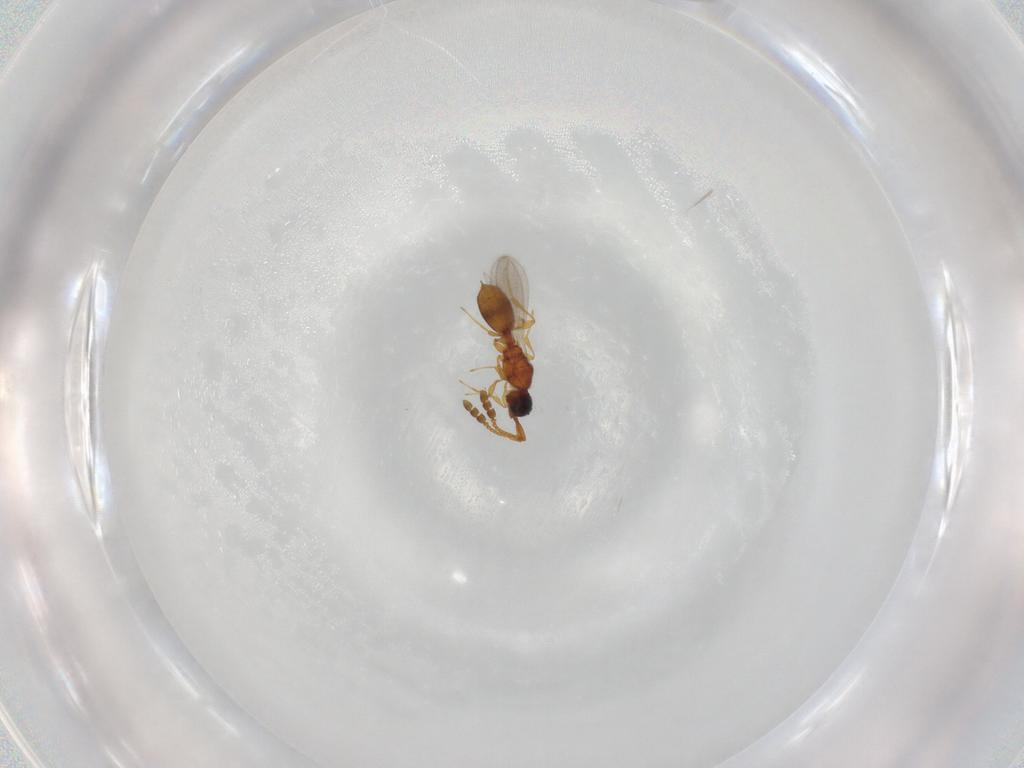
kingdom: Animalia
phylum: Arthropoda
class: Insecta
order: Hymenoptera
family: Diapriidae
